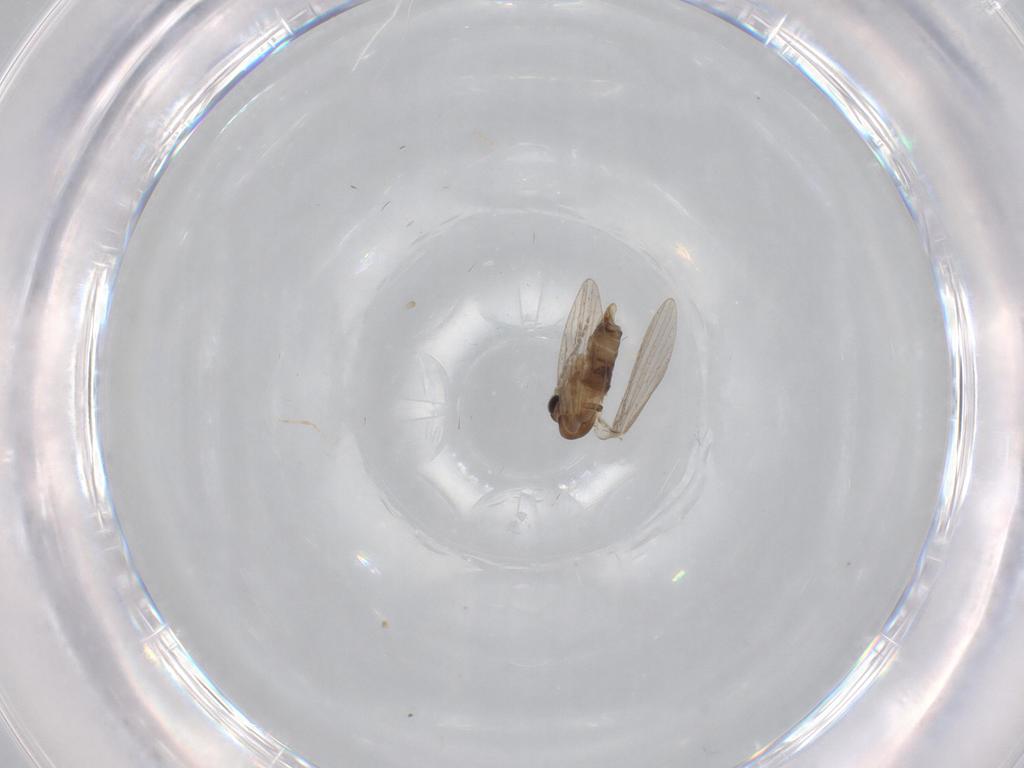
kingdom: Animalia
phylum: Arthropoda
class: Insecta
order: Diptera
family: Psychodidae
